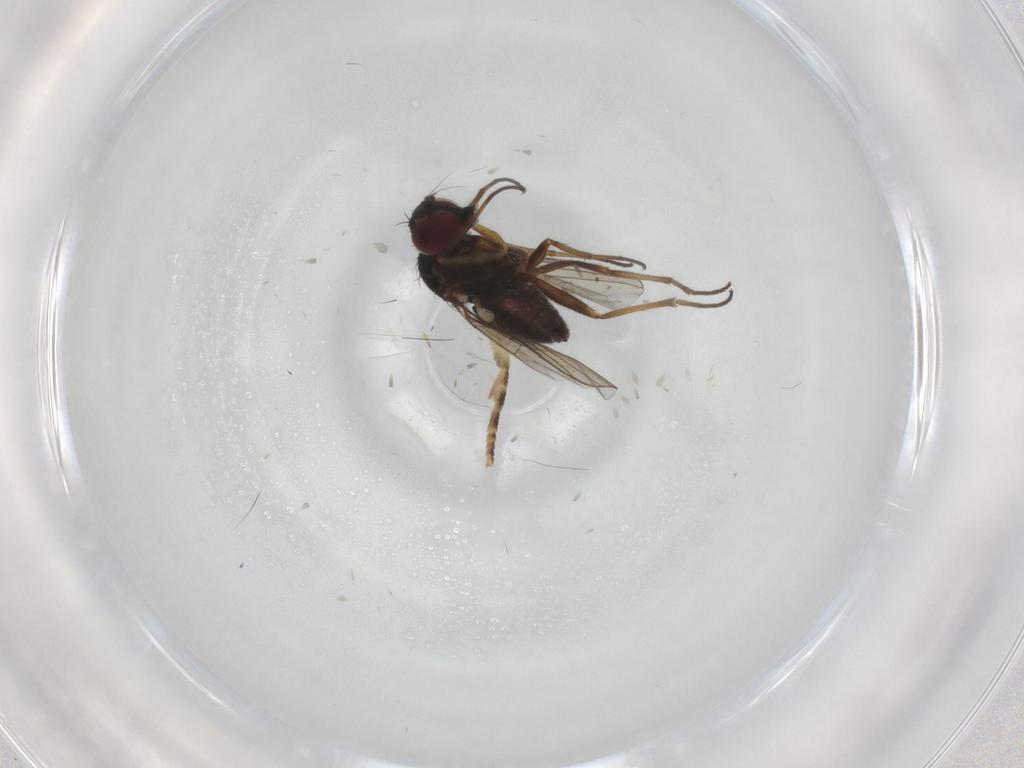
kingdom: Animalia
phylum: Arthropoda
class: Insecta
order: Diptera
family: Dolichopodidae
